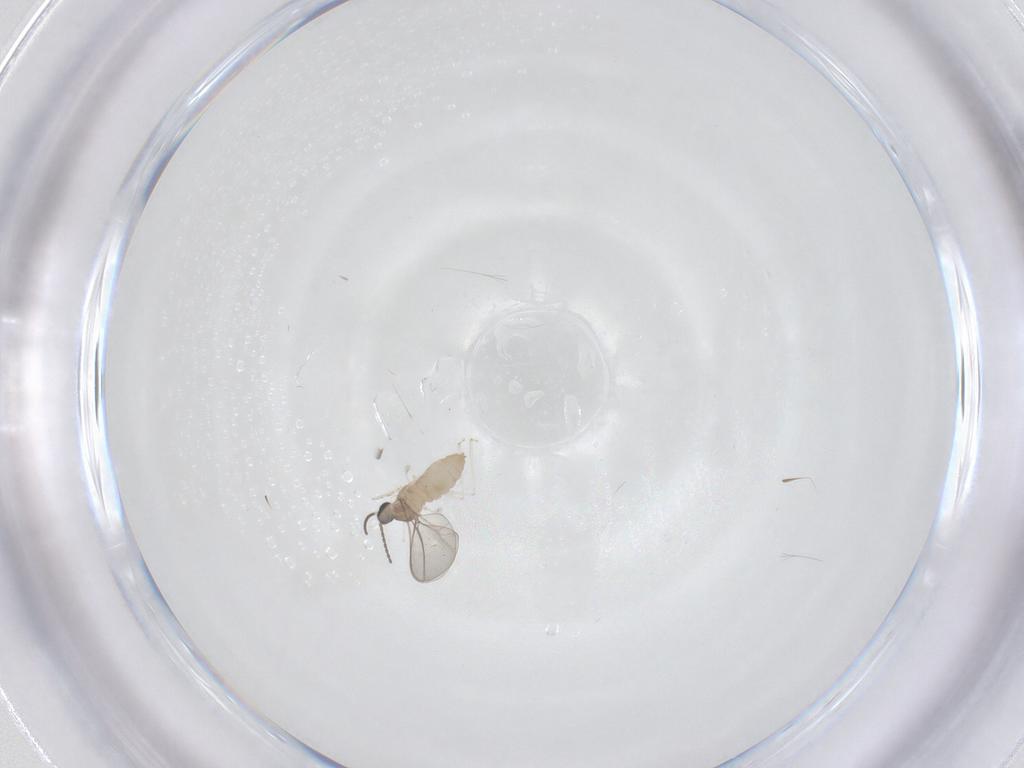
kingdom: Animalia
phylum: Arthropoda
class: Insecta
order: Diptera
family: Cecidomyiidae
